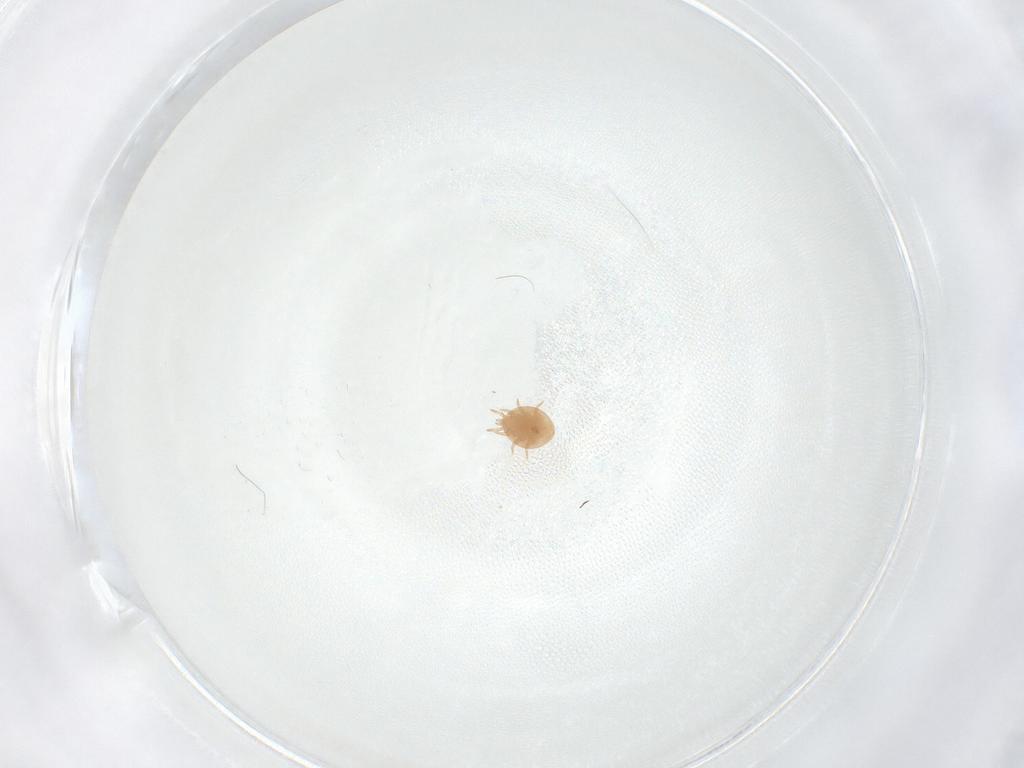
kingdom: Animalia
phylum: Arthropoda
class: Arachnida
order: Mesostigmata
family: Trematuridae
